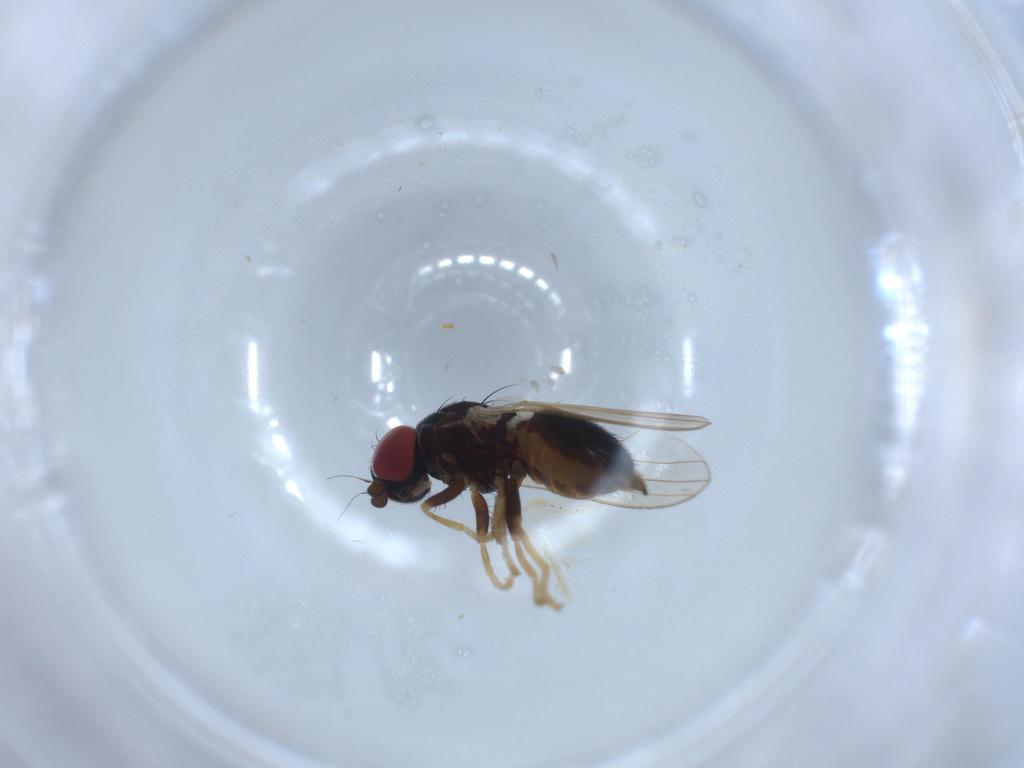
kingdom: Animalia
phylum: Arthropoda
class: Insecta
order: Diptera
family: Chamaemyiidae
